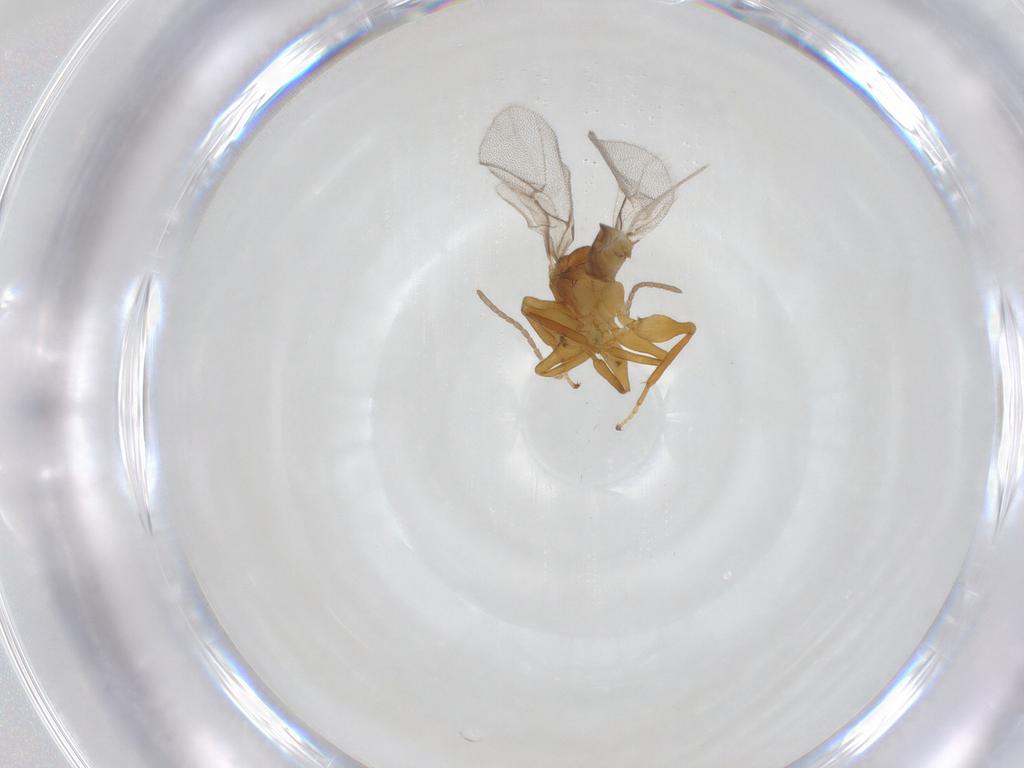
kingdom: Animalia
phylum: Arthropoda
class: Insecta
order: Hymenoptera
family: Cynipidae
